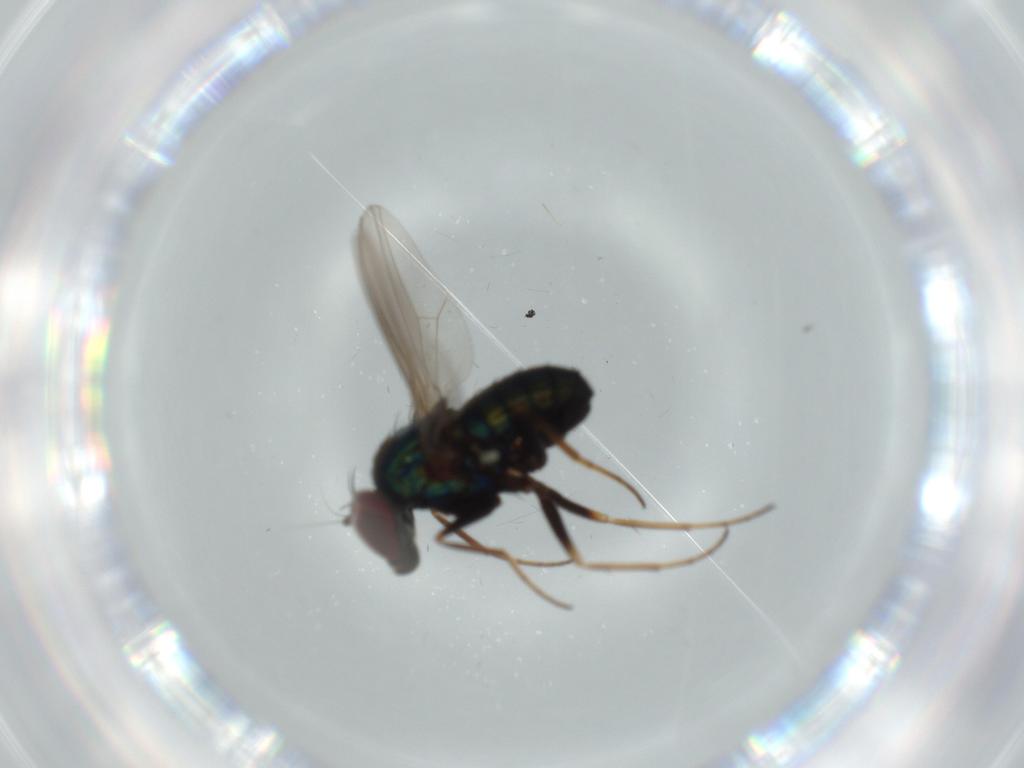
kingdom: Animalia
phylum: Arthropoda
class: Insecta
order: Diptera
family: Dolichopodidae
